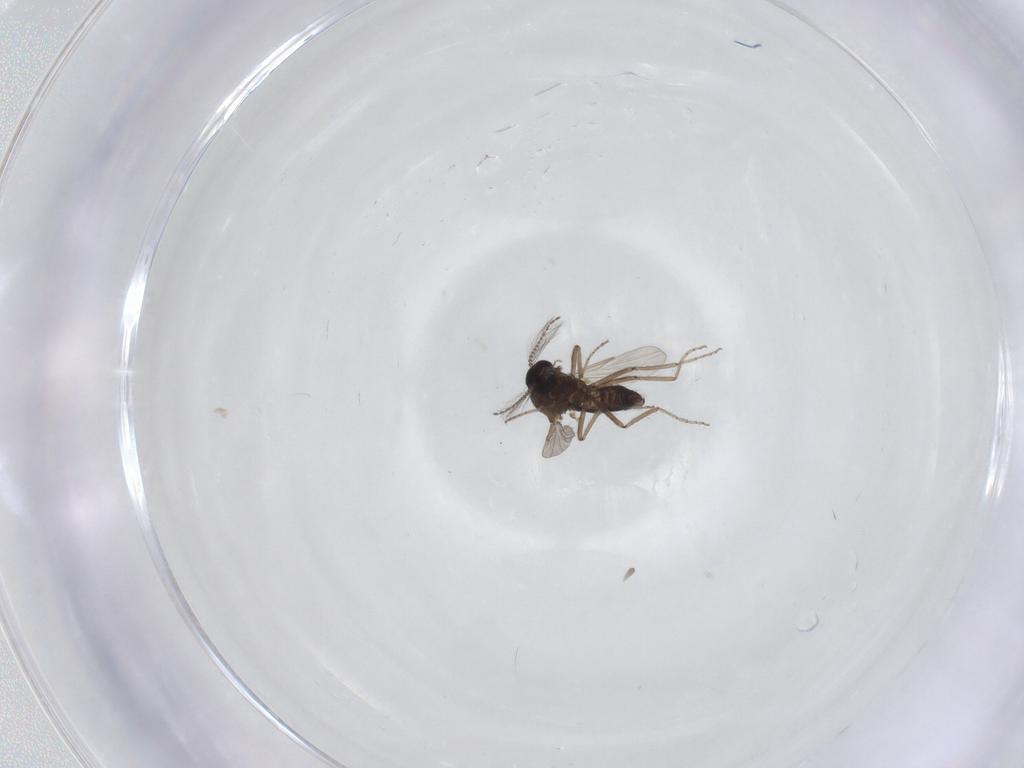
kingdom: Animalia
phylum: Arthropoda
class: Insecta
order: Diptera
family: Ceratopogonidae
